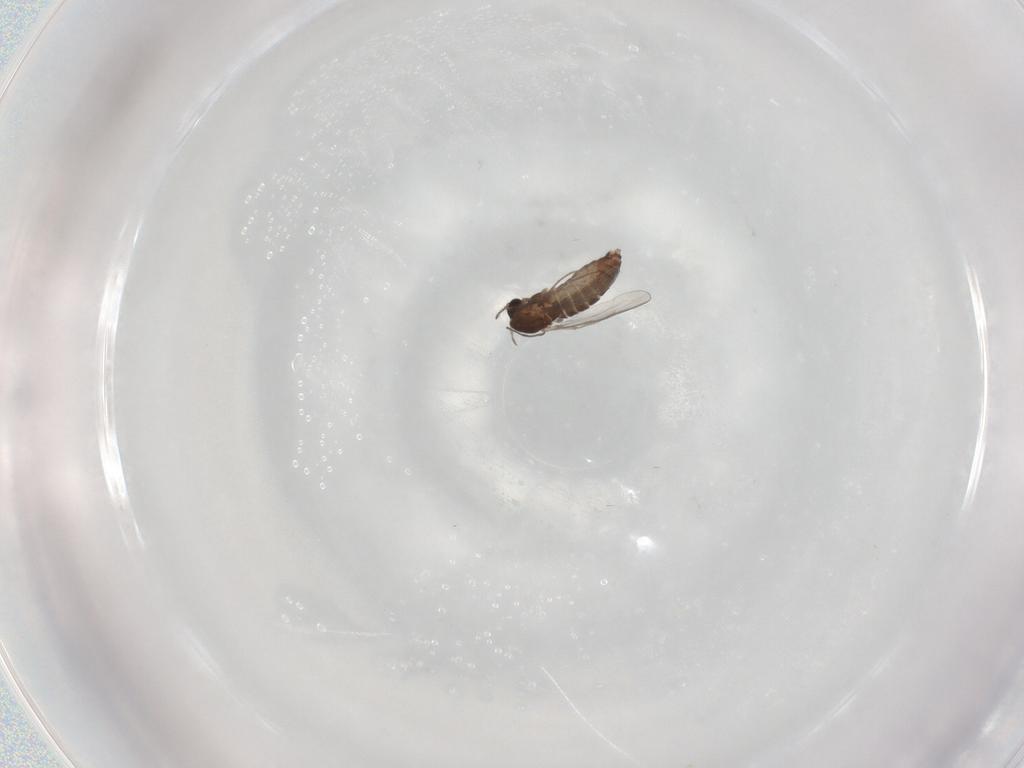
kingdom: Animalia
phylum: Arthropoda
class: Insecta
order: Diptera
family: Chironomidae
